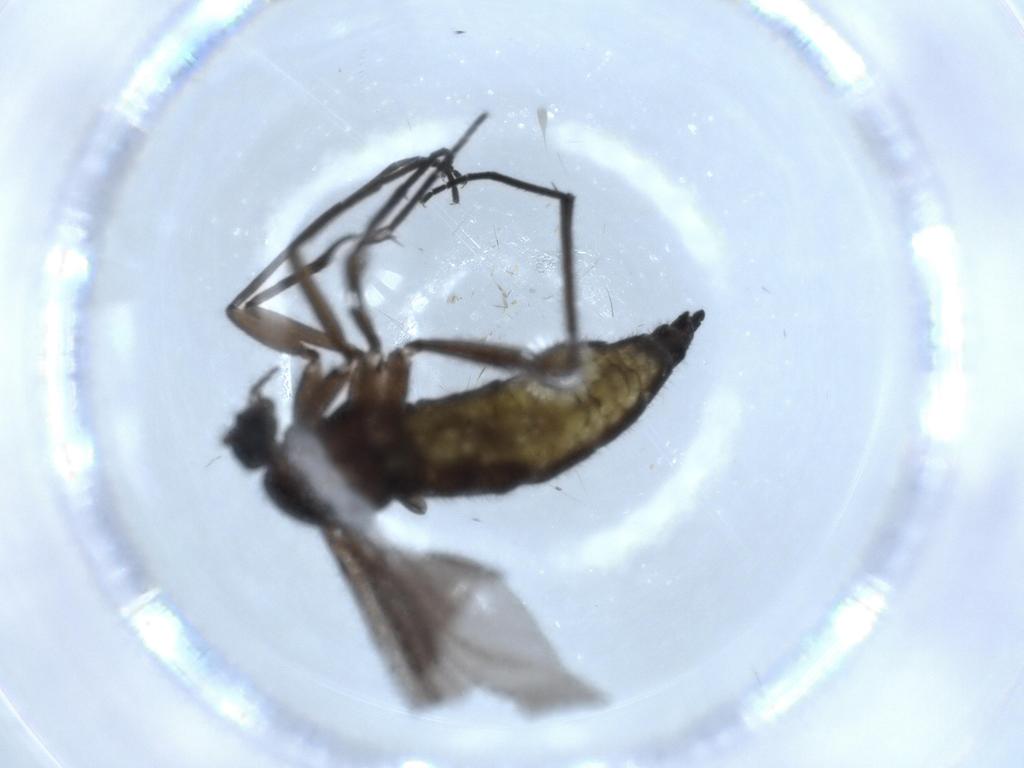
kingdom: Animalia
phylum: Arthropoda
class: Insecta
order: Diptera
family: Sciaridae
